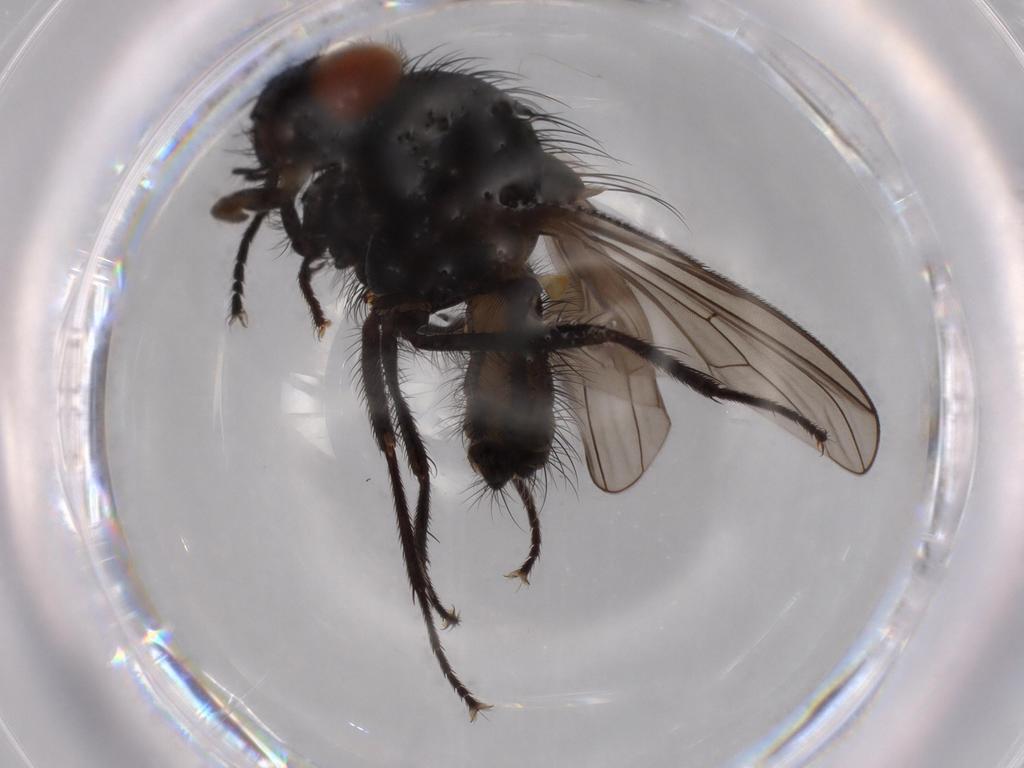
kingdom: Animalia
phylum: Arthropoda
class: Insecta
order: Diptera
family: Anthomyiidae
